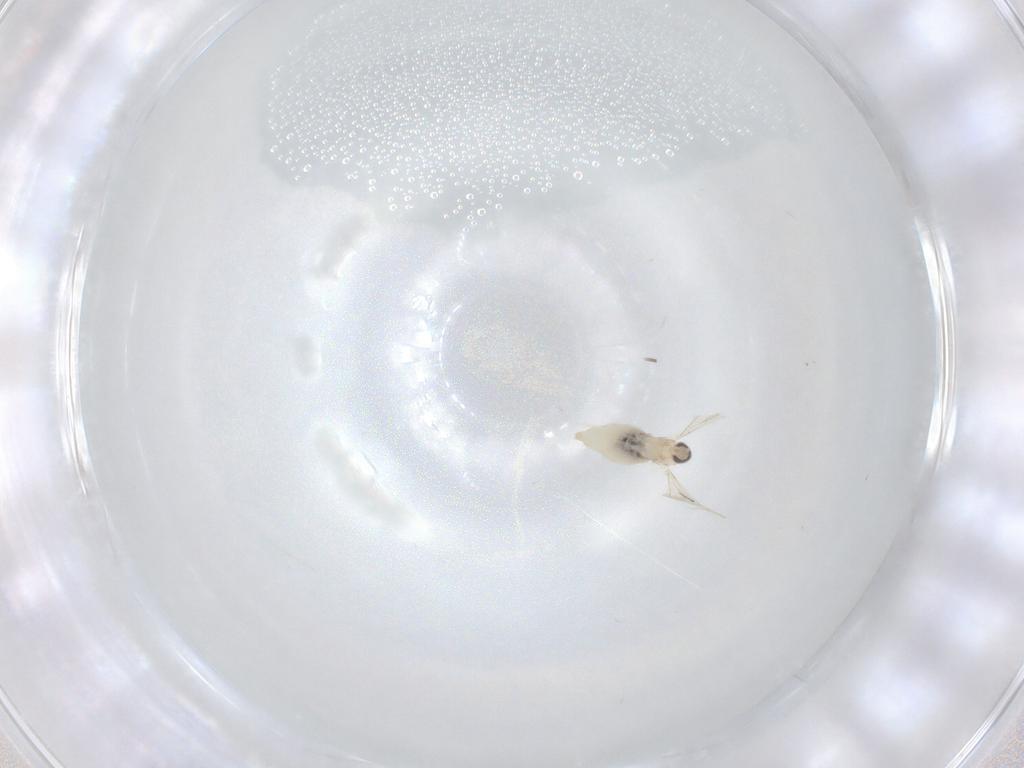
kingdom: Animalia
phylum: Arthropoda
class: Insecta
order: Diptera
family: Cecidomyiidae
